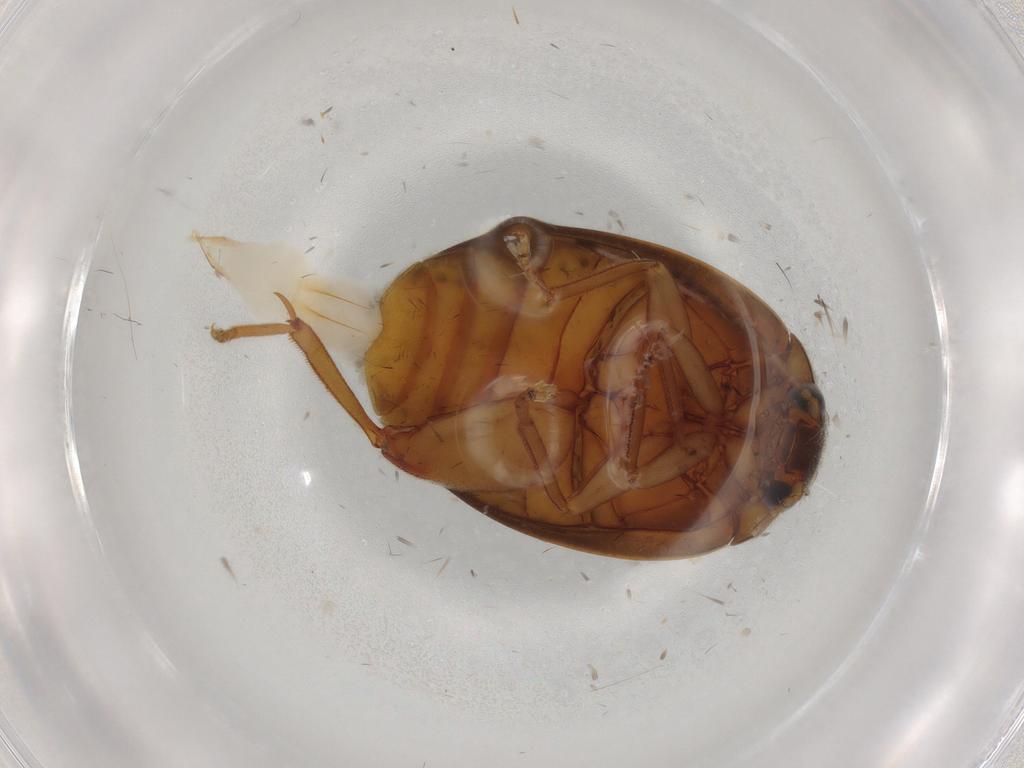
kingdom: Animalia
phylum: Arthropoda
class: Insecta
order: Coleoptera
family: Scirtidae
